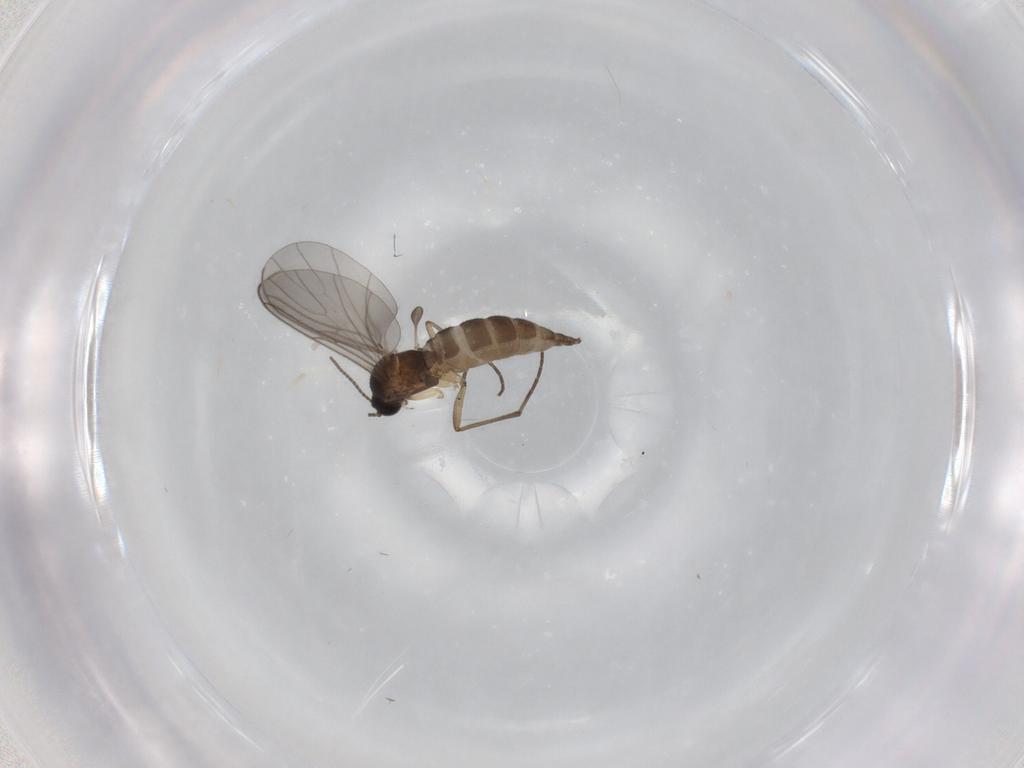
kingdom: Animalia
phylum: Arthropoda
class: Insecta
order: Diptera
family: Sciaridae
